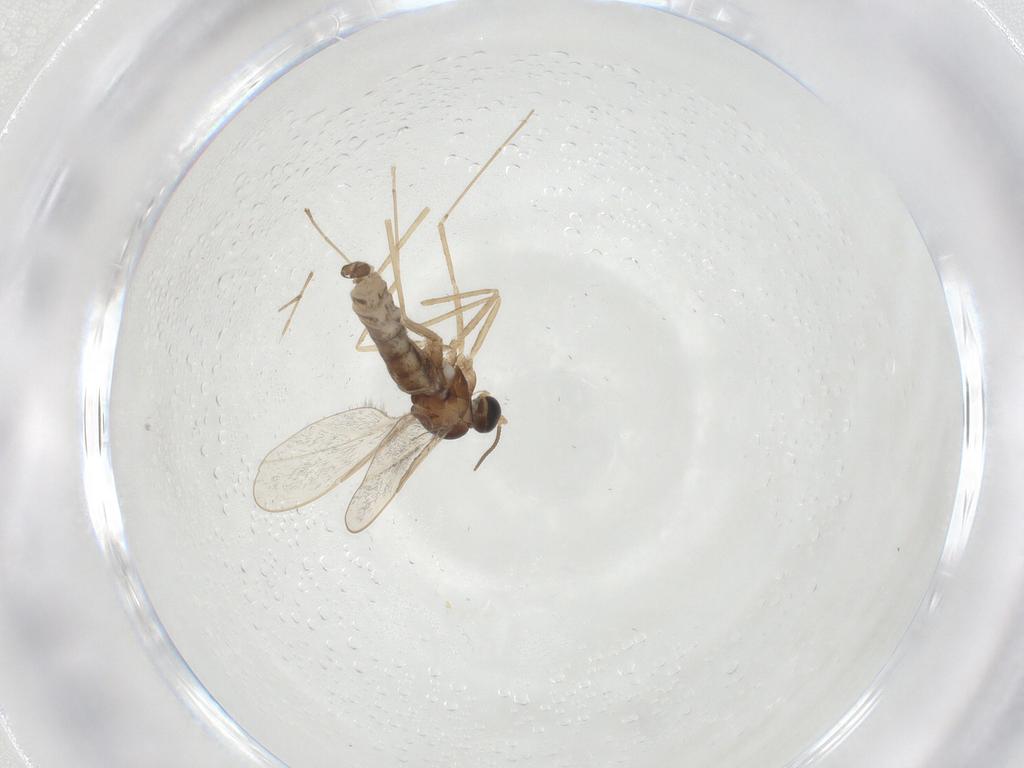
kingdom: Animalia
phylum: Arthropoda
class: Insecta
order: Diptera
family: Cecidomyiidae
